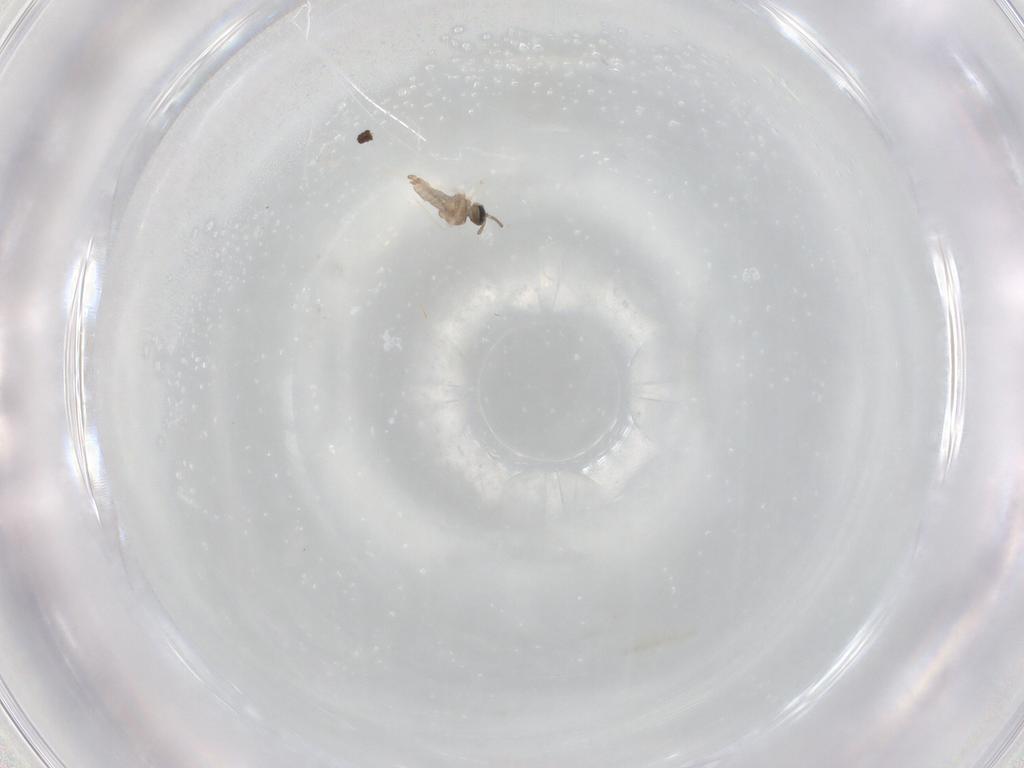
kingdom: Animalia
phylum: Arthropoda
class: Insecta
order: Diptera
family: Cecidomyiidae
